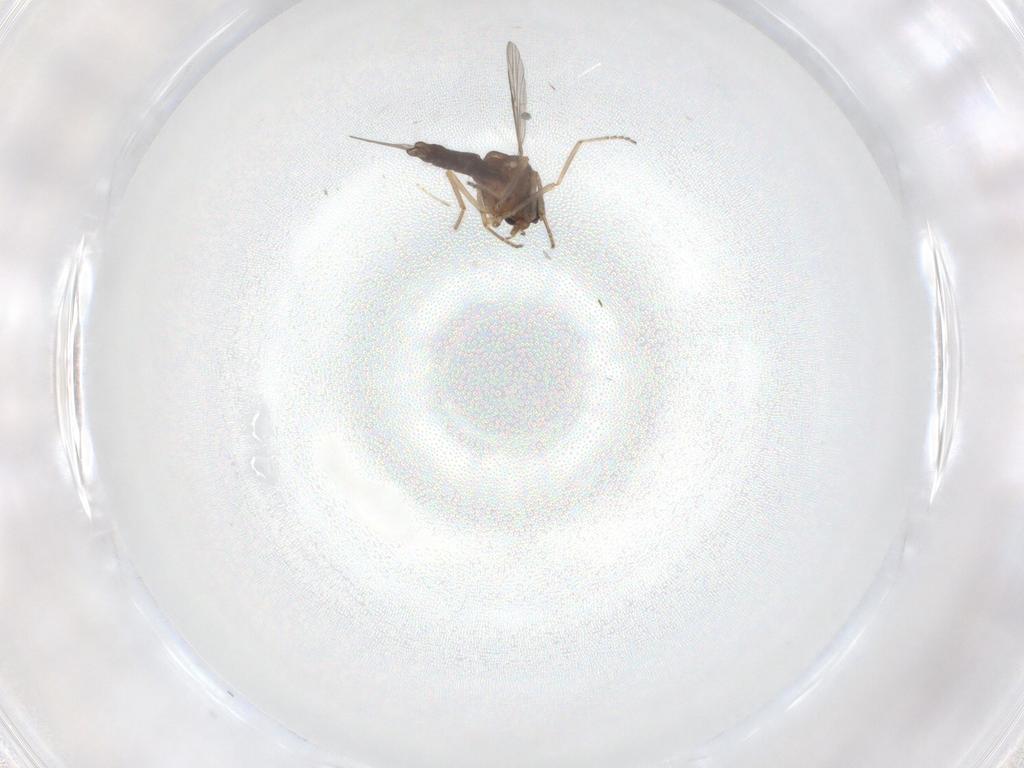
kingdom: Animalia
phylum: Arthropoda
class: Insecta
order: Diptera
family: Ceratopogonidae
